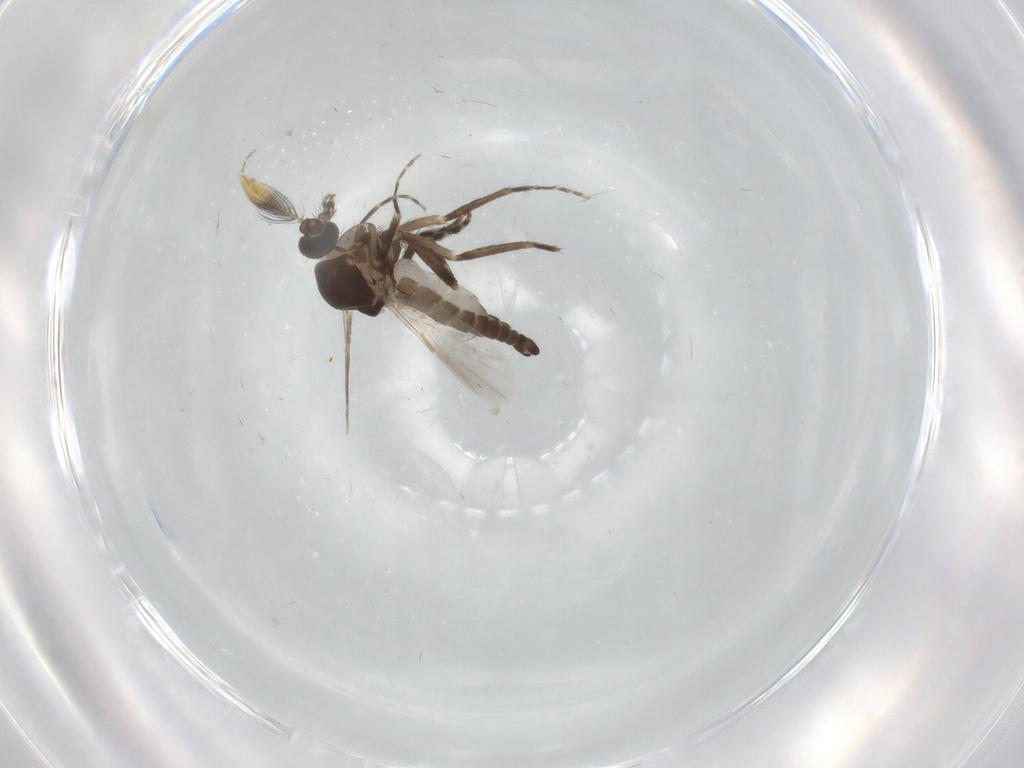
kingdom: Animalia
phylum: Arthropoda
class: Insecta
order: Diptera
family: Ceratopogonidae
